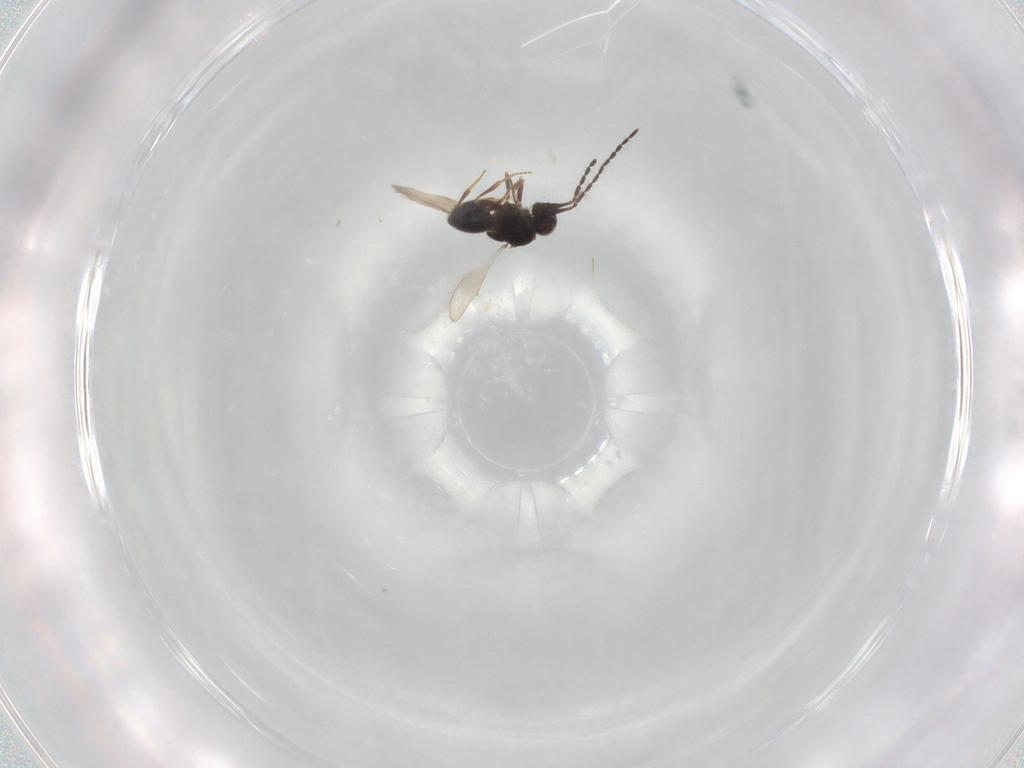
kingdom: Animalia
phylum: Arthropoda
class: Insecta
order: Hymenoptera
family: Ceraphronidae
